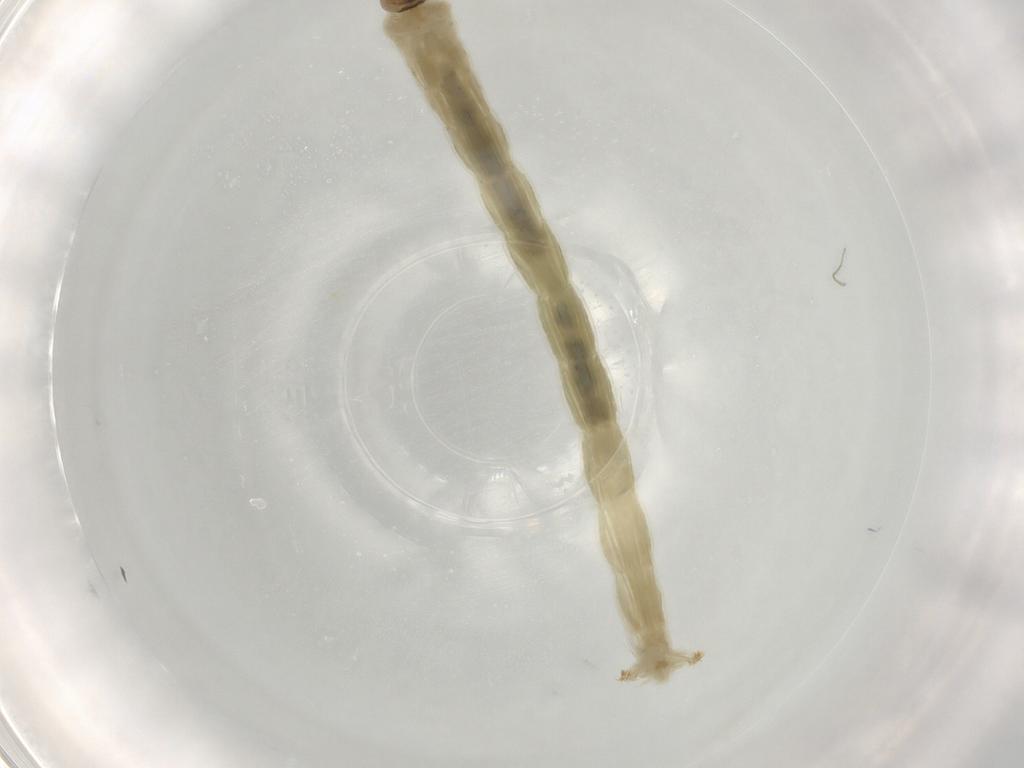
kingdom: Animalia
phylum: Arthropoda
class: Insecta
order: Diptera
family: Chironomidae
